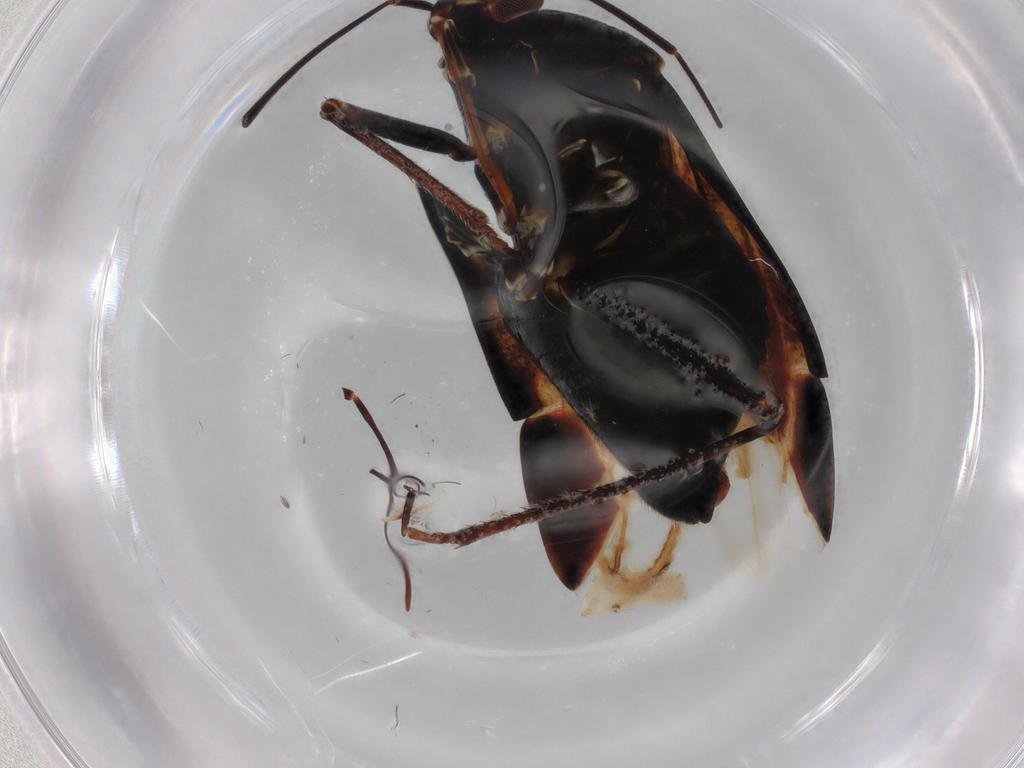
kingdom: Animalia
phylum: Arthropoda
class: Insecta
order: Hemiptera
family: Miridae
